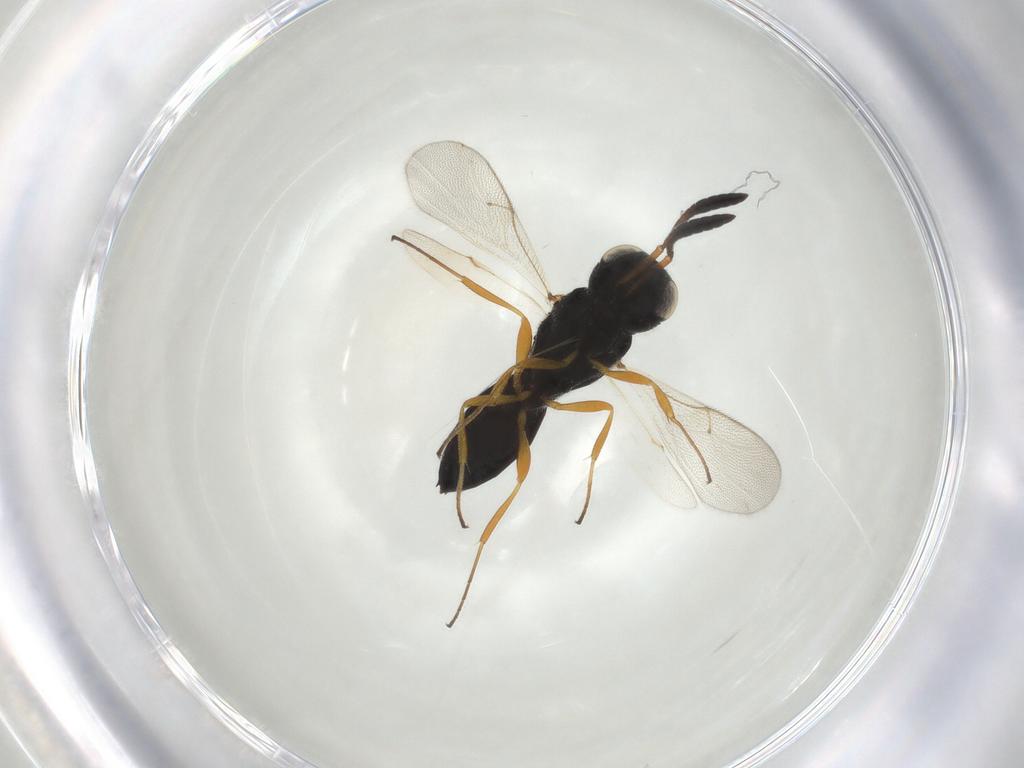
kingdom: Animalia
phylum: Arthropoda
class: Insecta
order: Hymenoptera
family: Scelionidae
